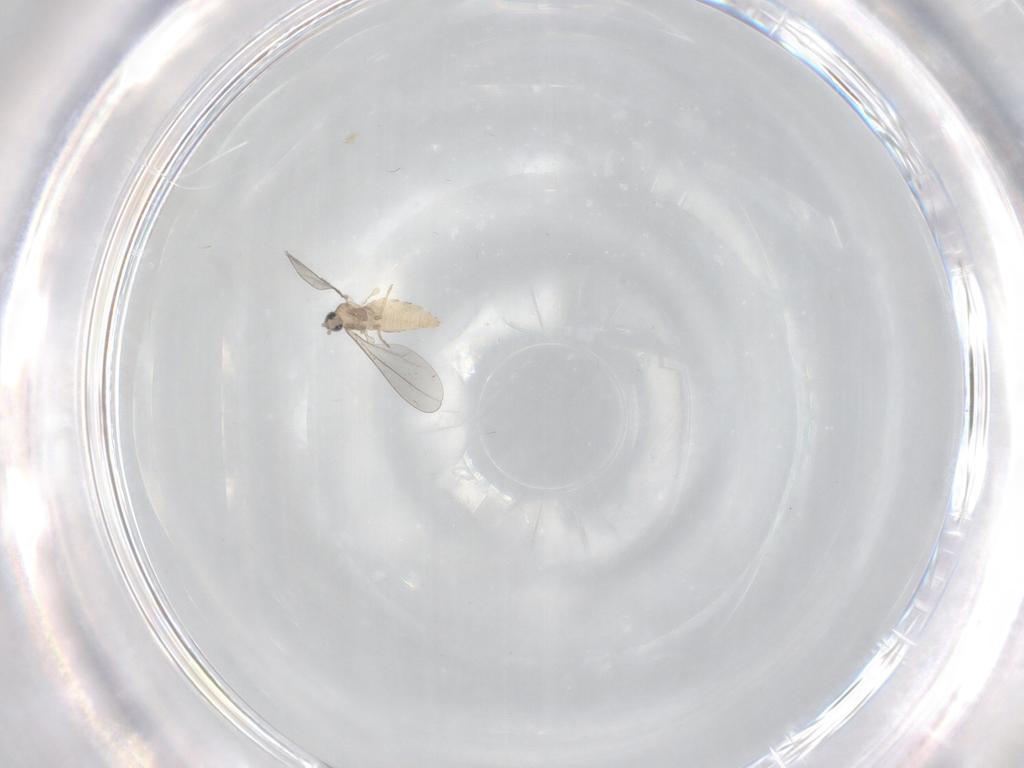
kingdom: Animalia
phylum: Arthropoda
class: Insecta
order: Diptera
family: Cecidomyiidae
